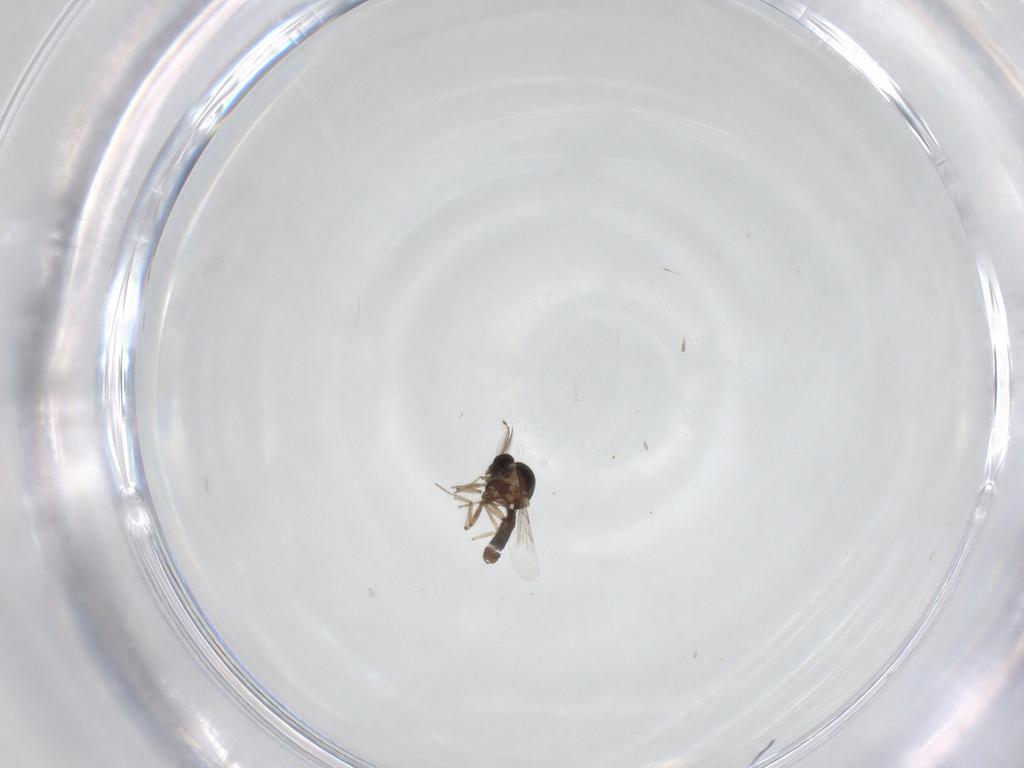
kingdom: Animalia
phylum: Arthropoda
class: Insecta
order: Diptera
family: Ceratopogonidae
